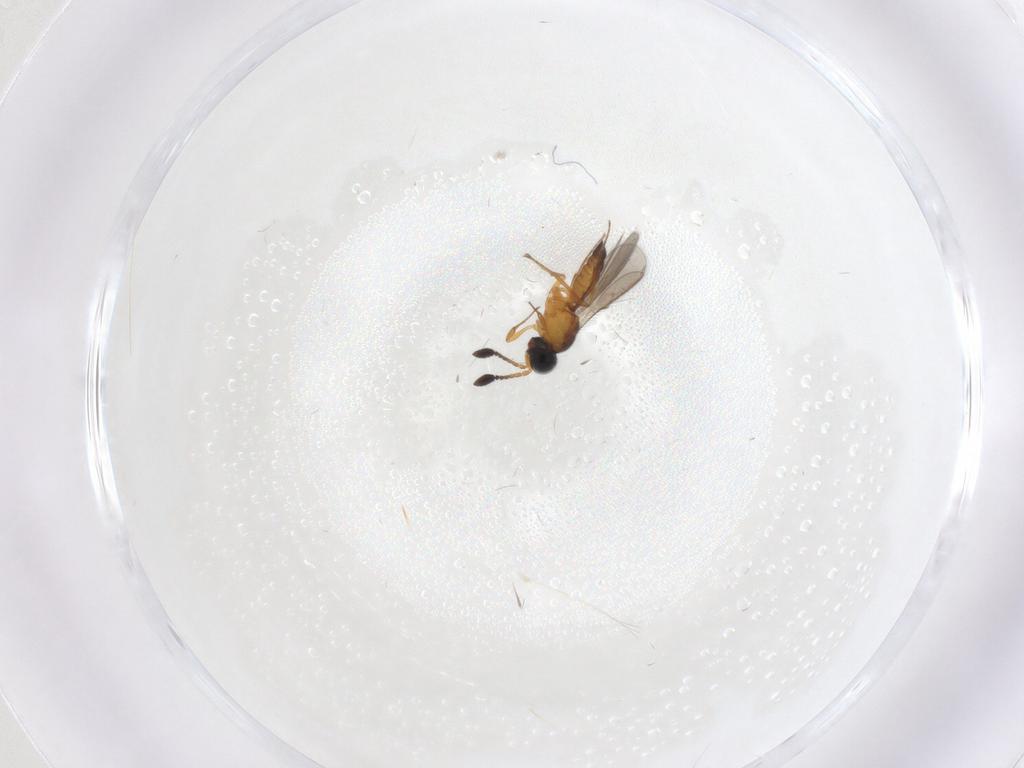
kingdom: Animalia
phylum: Arthropoda
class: Insecta
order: Hymenoptera
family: Scelionidae
